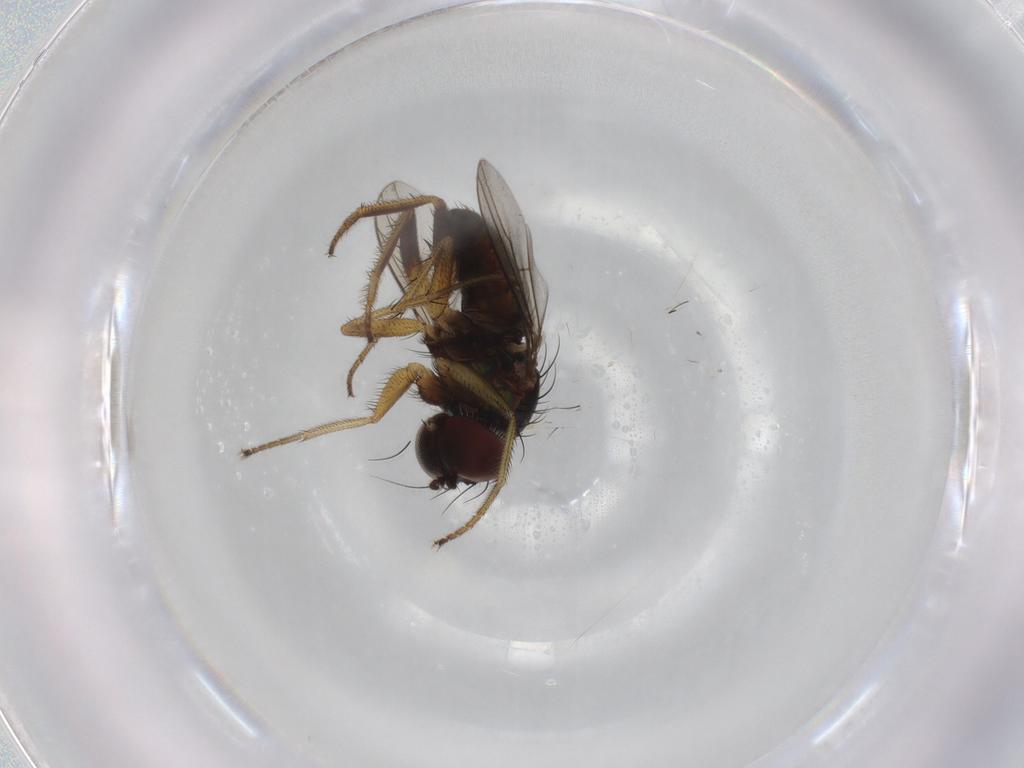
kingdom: Animalia
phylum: Arthropoda
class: Insecta
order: Diptera
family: Dolichopodidae
